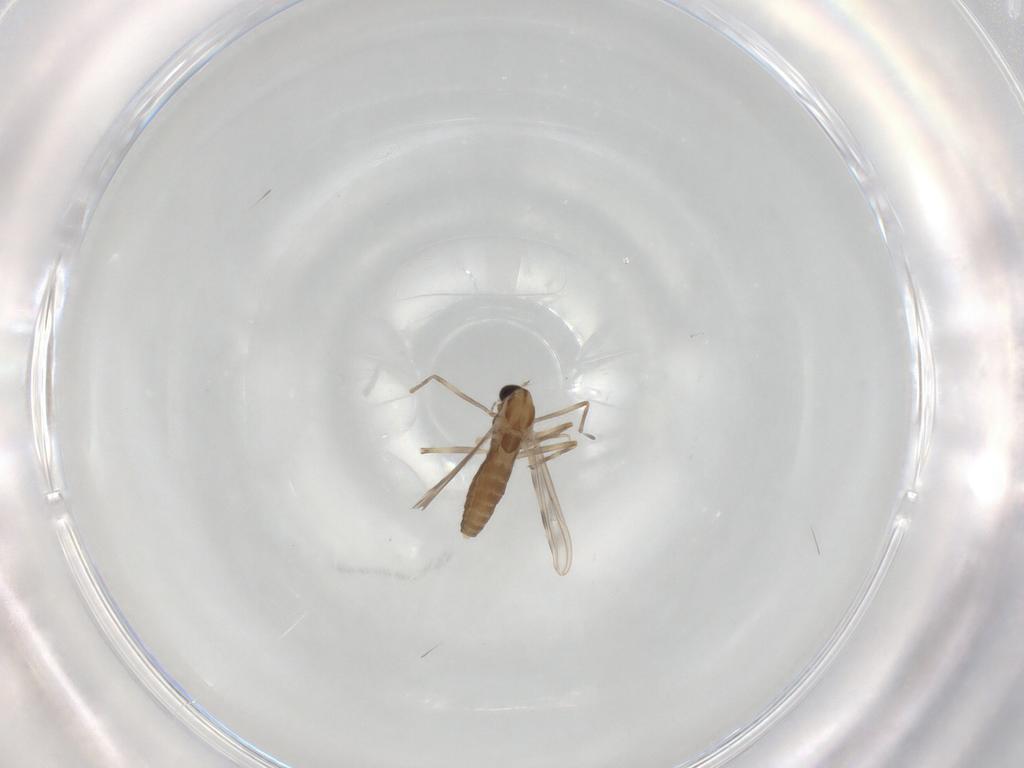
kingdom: Animalia
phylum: Arthropoda
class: Insecta
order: Diptera
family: Chironomidae
